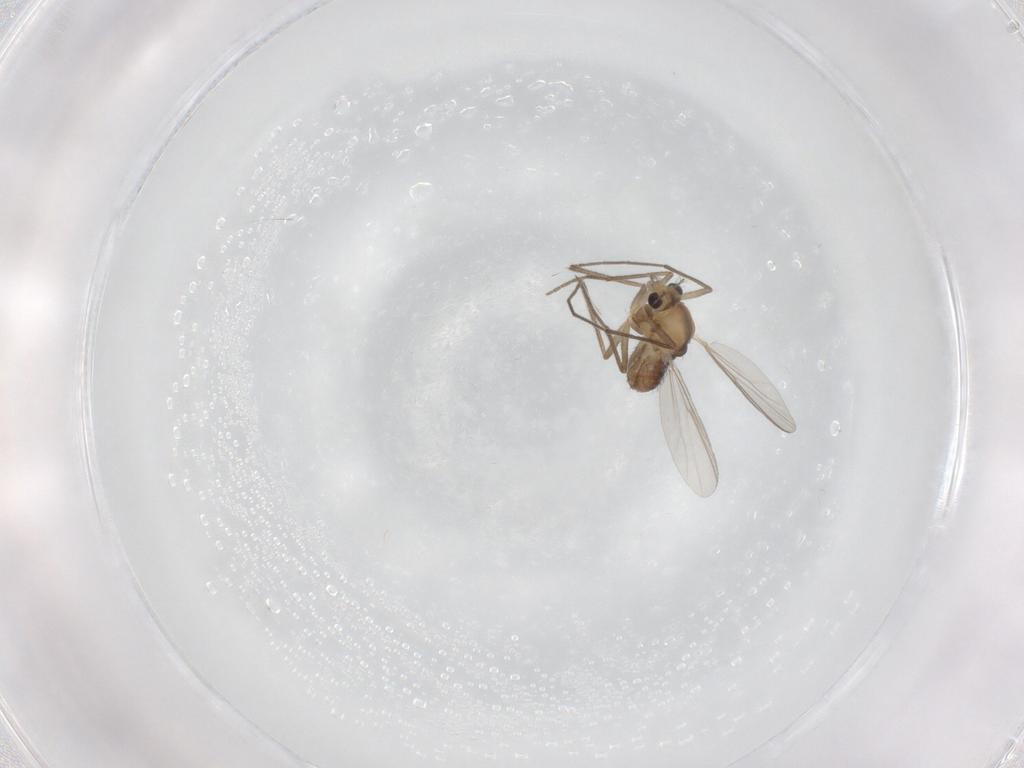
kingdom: Animalia
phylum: Arthropoda
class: Insecta
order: Diptera
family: Chironomidae
